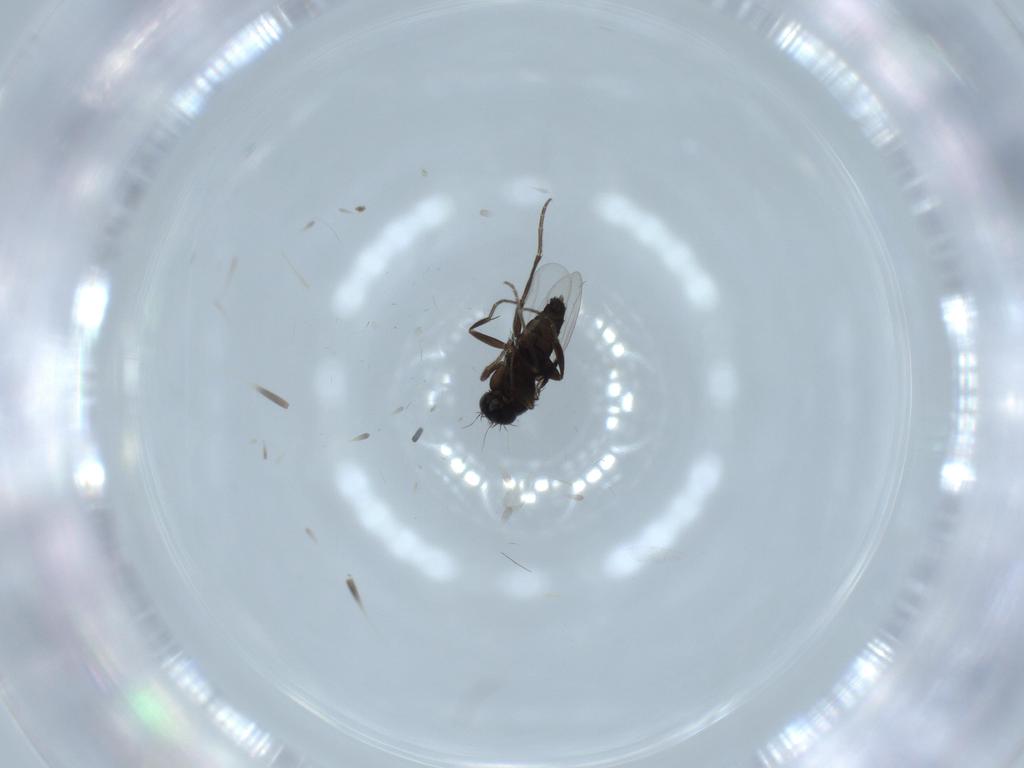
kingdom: Animalia
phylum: Arthropoda
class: Insecta
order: Diptera
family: Phoridae
